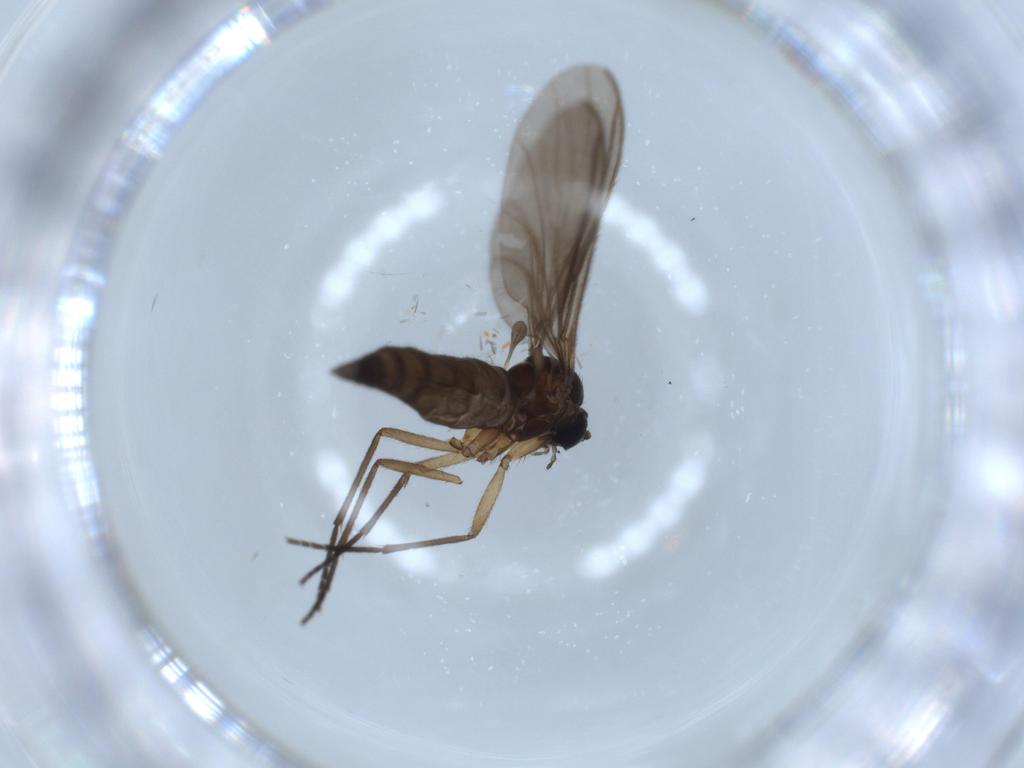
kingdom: Animalia
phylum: Arthropoda
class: Insecta
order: Diptera
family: Sciaridae
